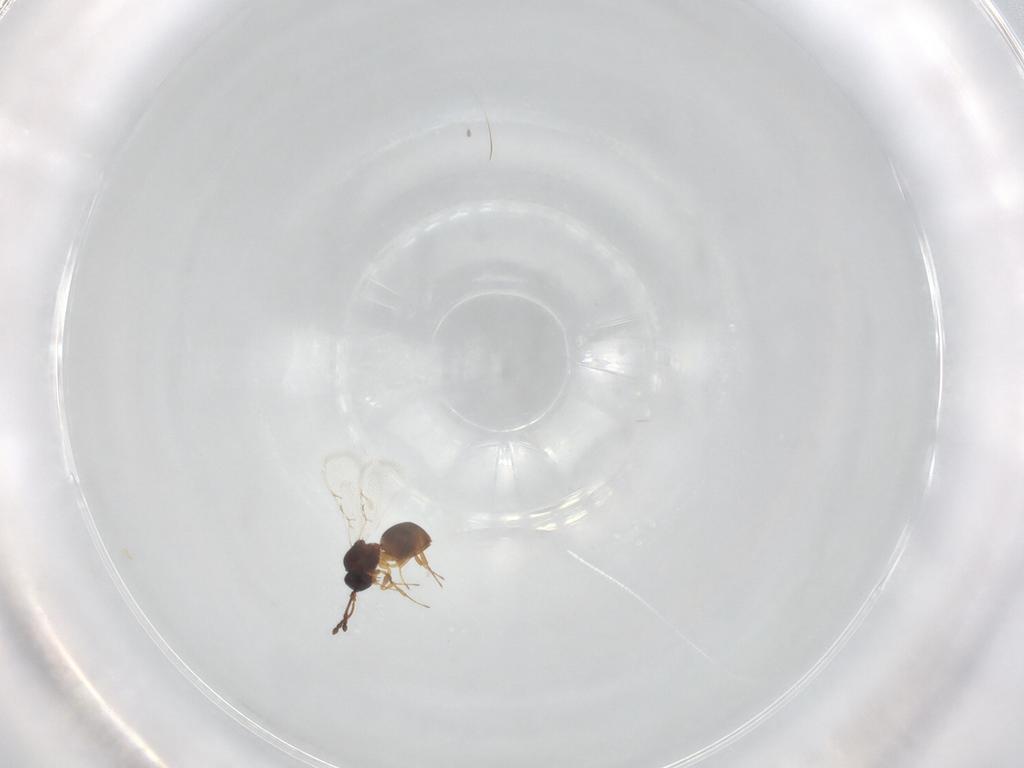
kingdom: Animalia
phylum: Arthropoda
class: Insecta
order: Hymenoptera
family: Figitidae
